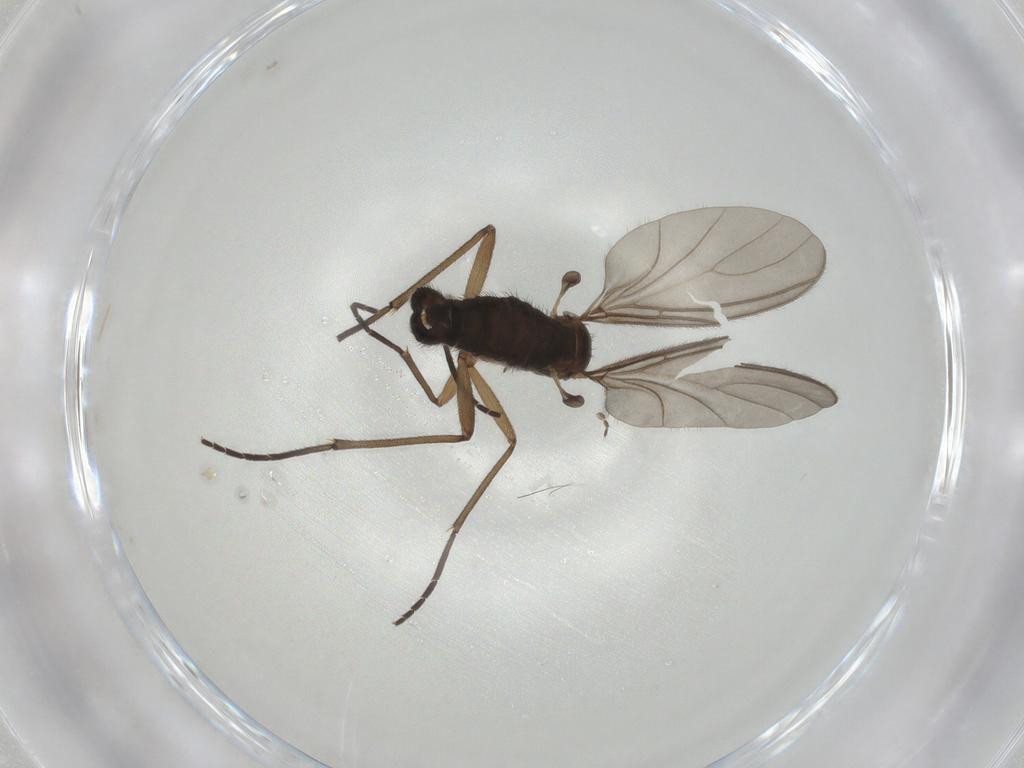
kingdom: Animalia
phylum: Arthropoda
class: Insecta
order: Diptera
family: Sciaridae
